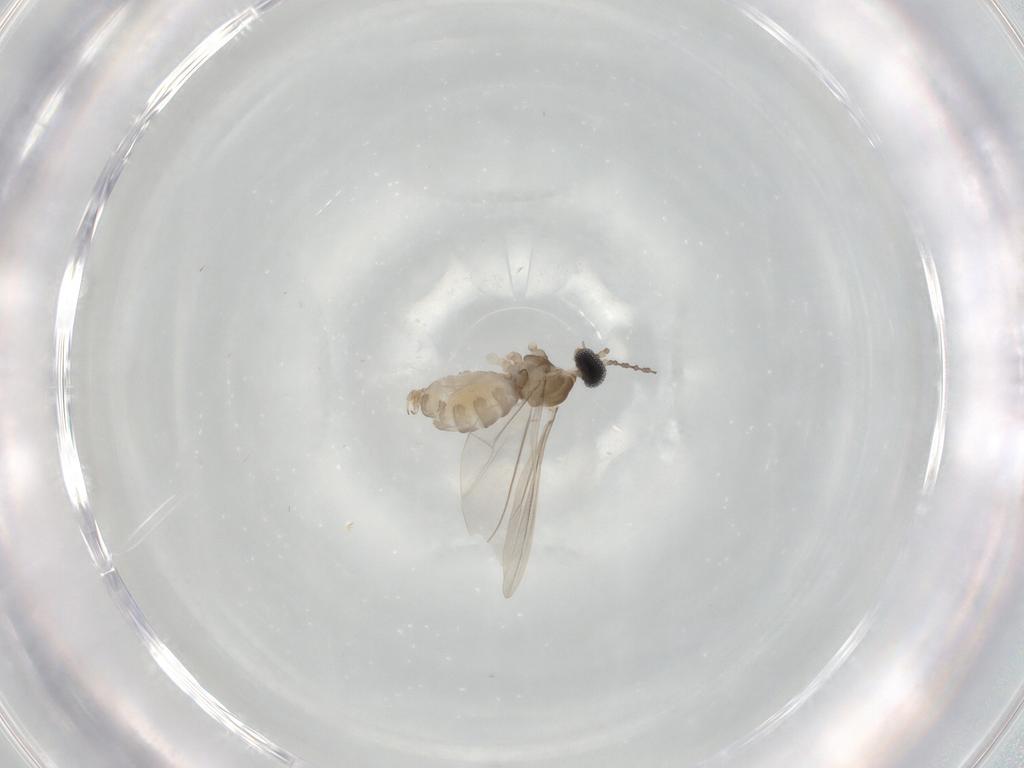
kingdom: Animalia
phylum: Arthropoda
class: Insecta
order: Diptera
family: Cecidomyiidae
